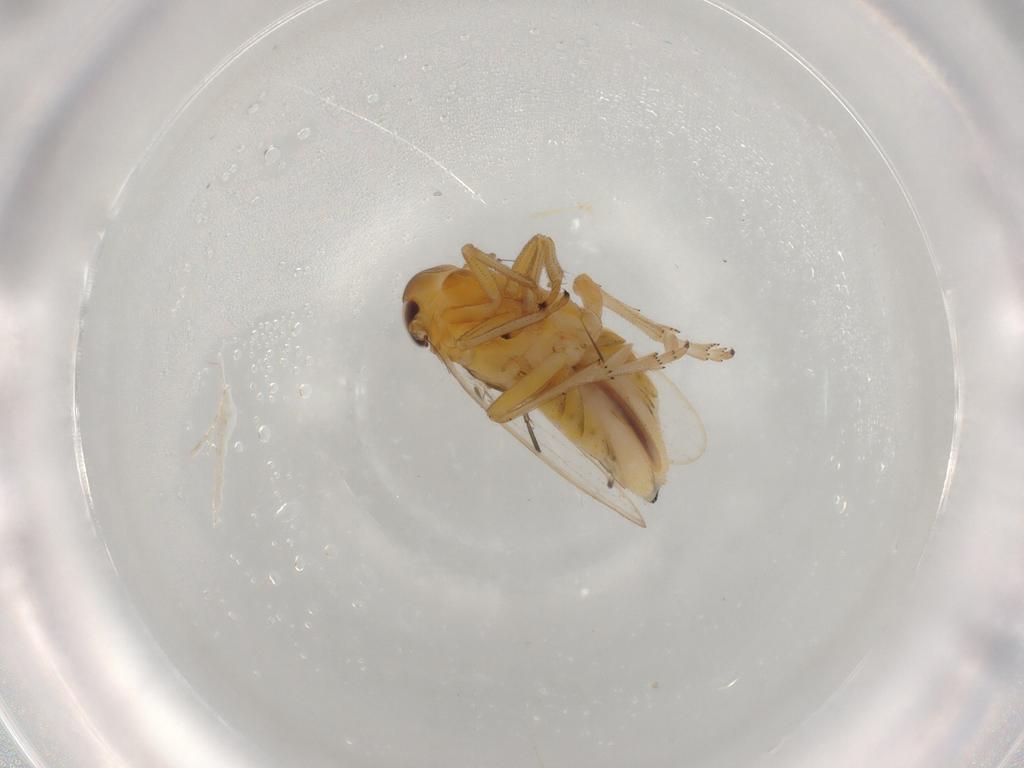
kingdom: Animalia
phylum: Arthropoda
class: Insecta
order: Hemiptera
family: Delphacidae
